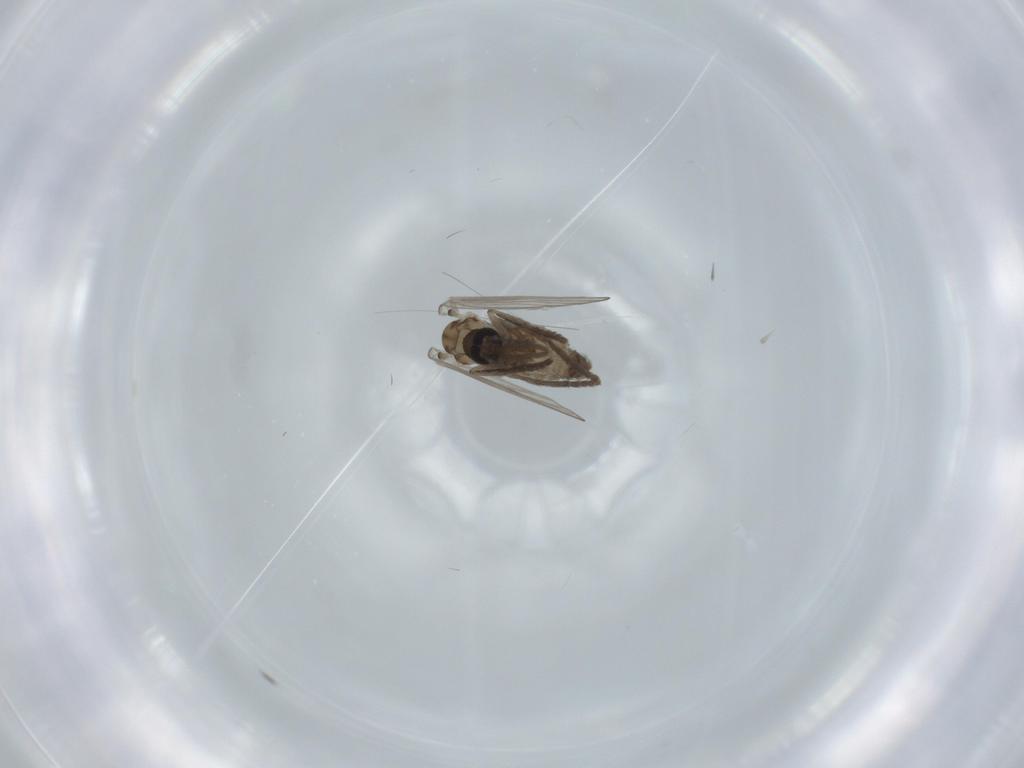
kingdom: Animalia
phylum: Arthropoda
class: Insecta
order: Diptera
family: Psychodidae
